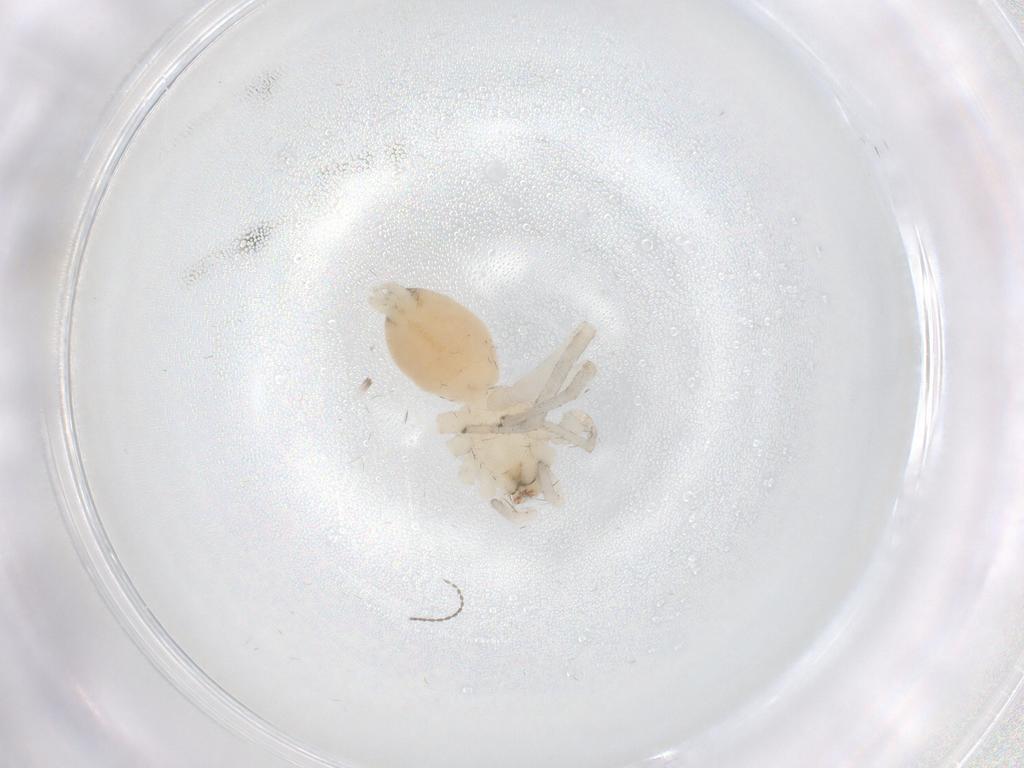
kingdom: Animalia
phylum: Arthropoda
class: Arachnida
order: Araneae
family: Gnaphosidae
